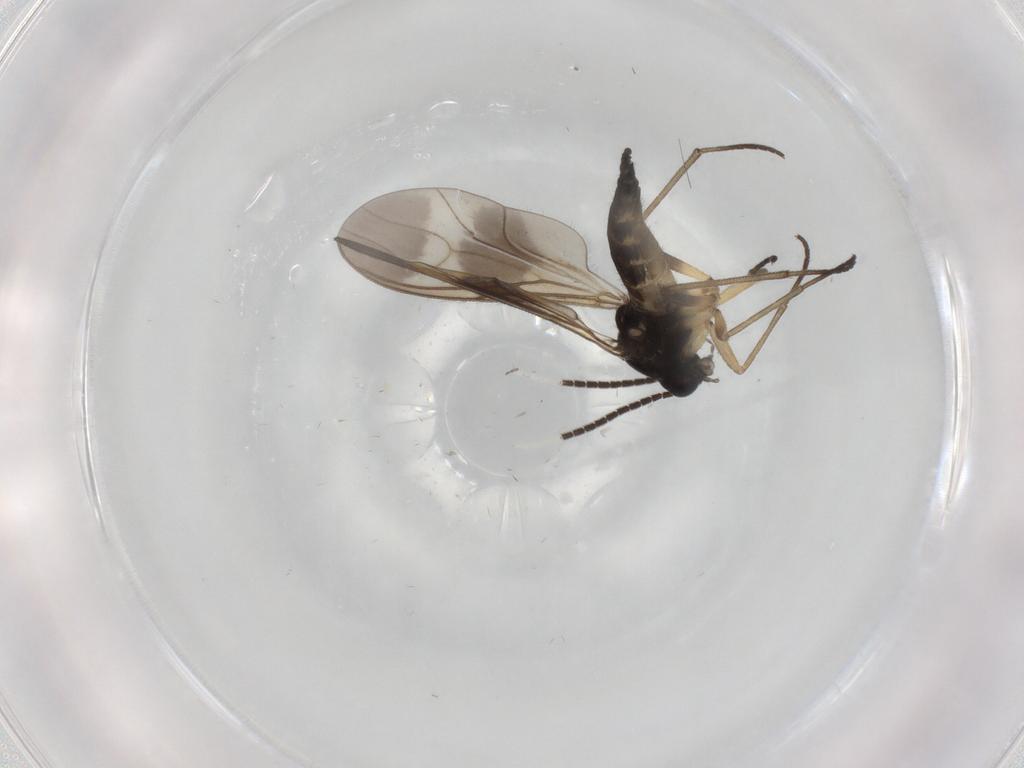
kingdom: Animalia
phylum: Arthropoda
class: Insecta
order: Diptera
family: Sciaridae
